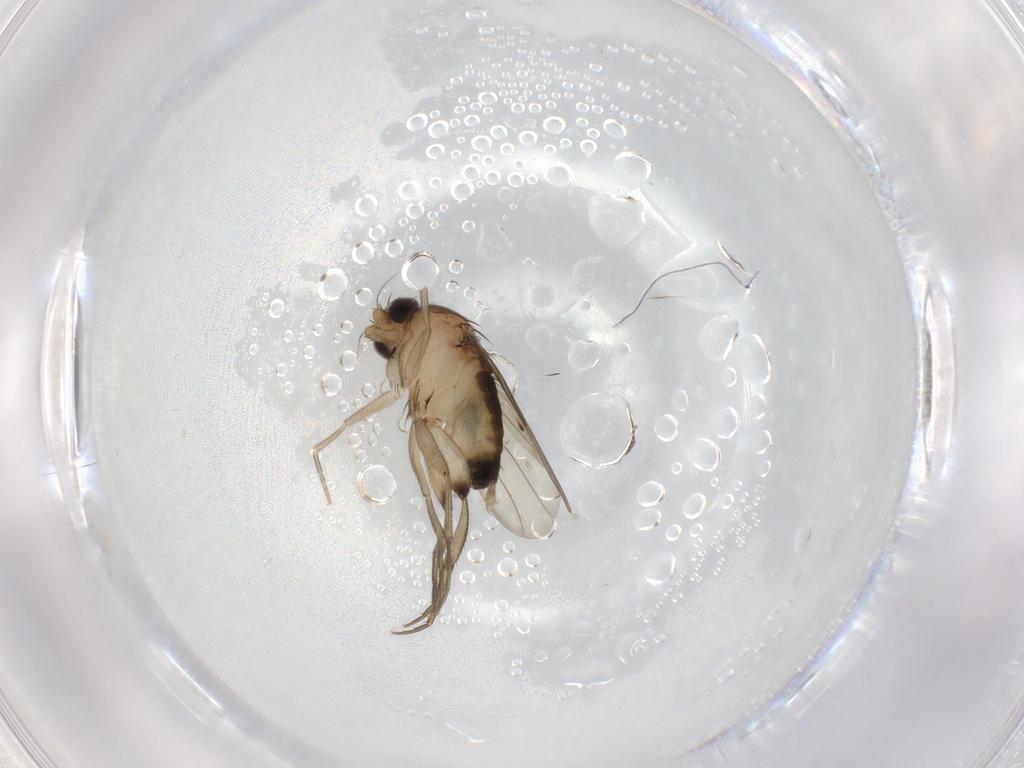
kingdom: Animalia
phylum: Arthropoda
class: Insecta
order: Diptera
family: Phoridae
